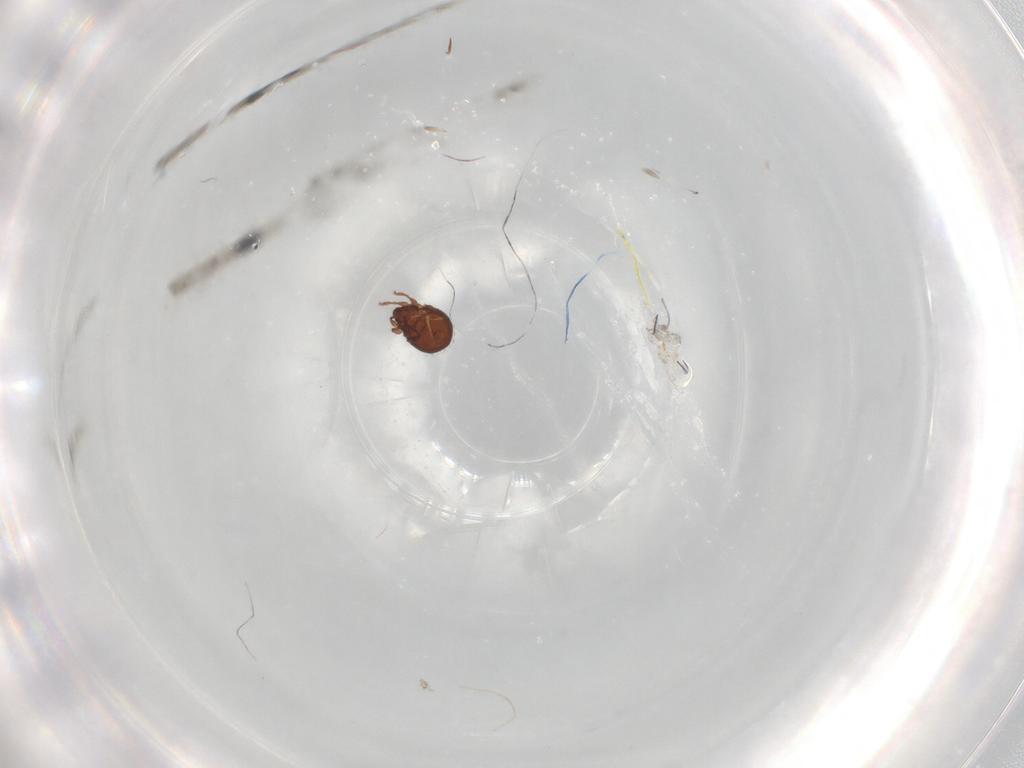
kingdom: Animalia
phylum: Arthropoda
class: Arachnida
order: Sarcoptiformes
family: Scheloribatidae
